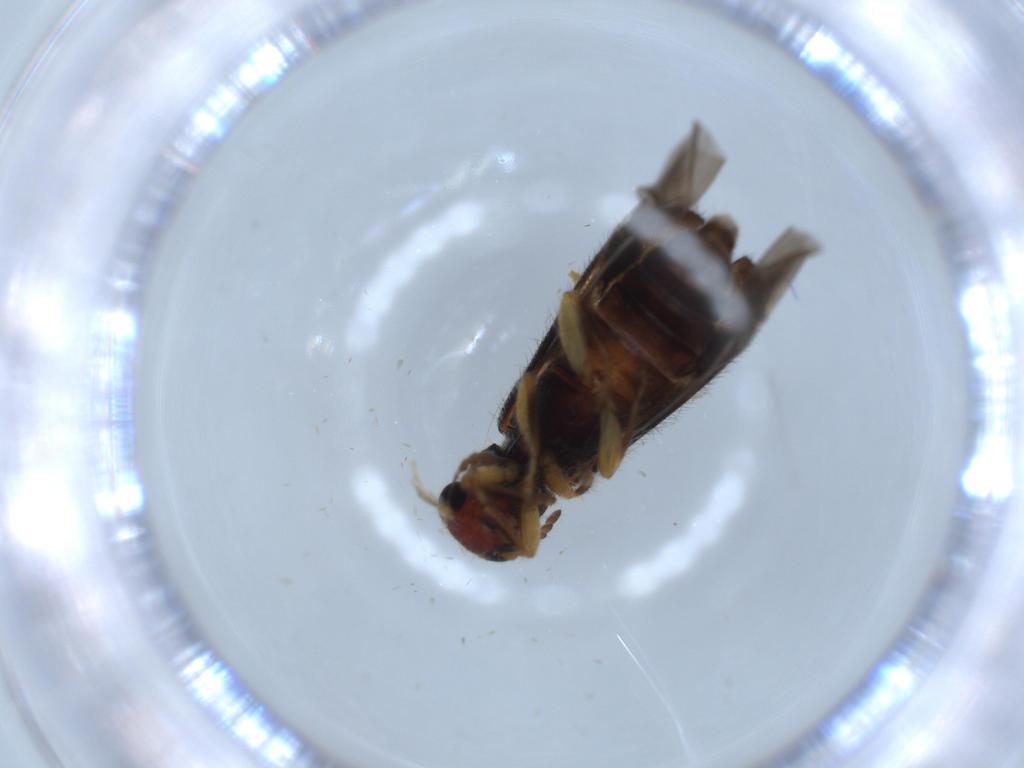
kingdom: Animalia
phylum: Arthropoda
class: Insecta
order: Coleoptera
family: Cleridae
